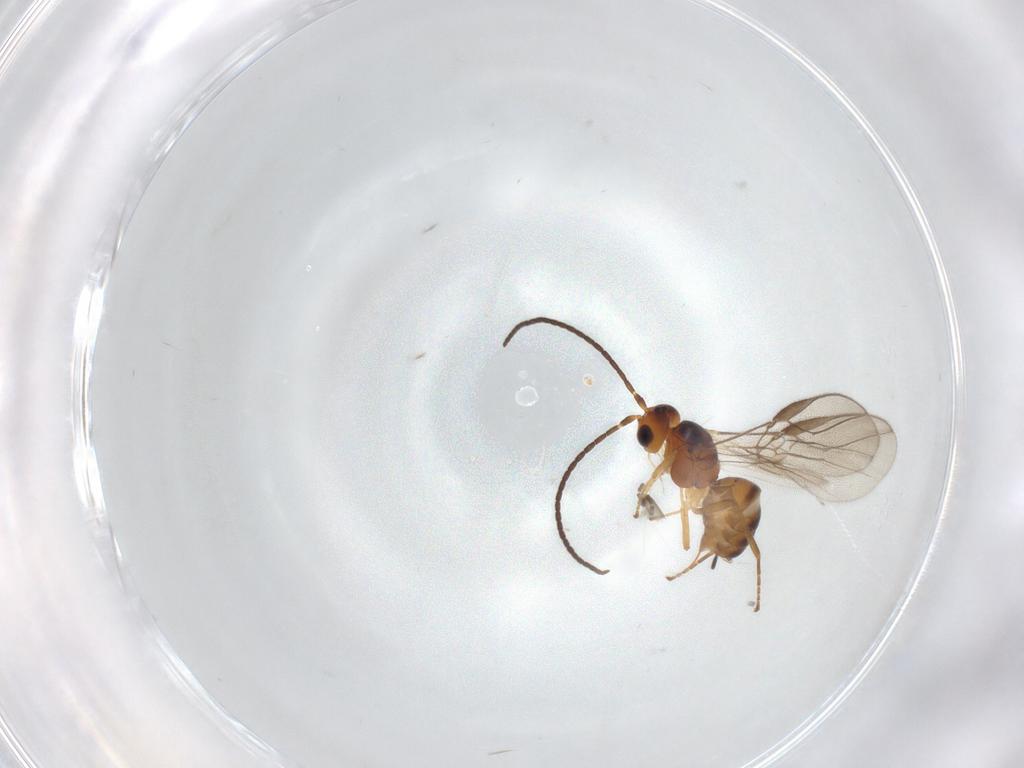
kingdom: Animalia
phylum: Arthropoda
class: Insecta
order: Hymenoptera
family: Braconidae
